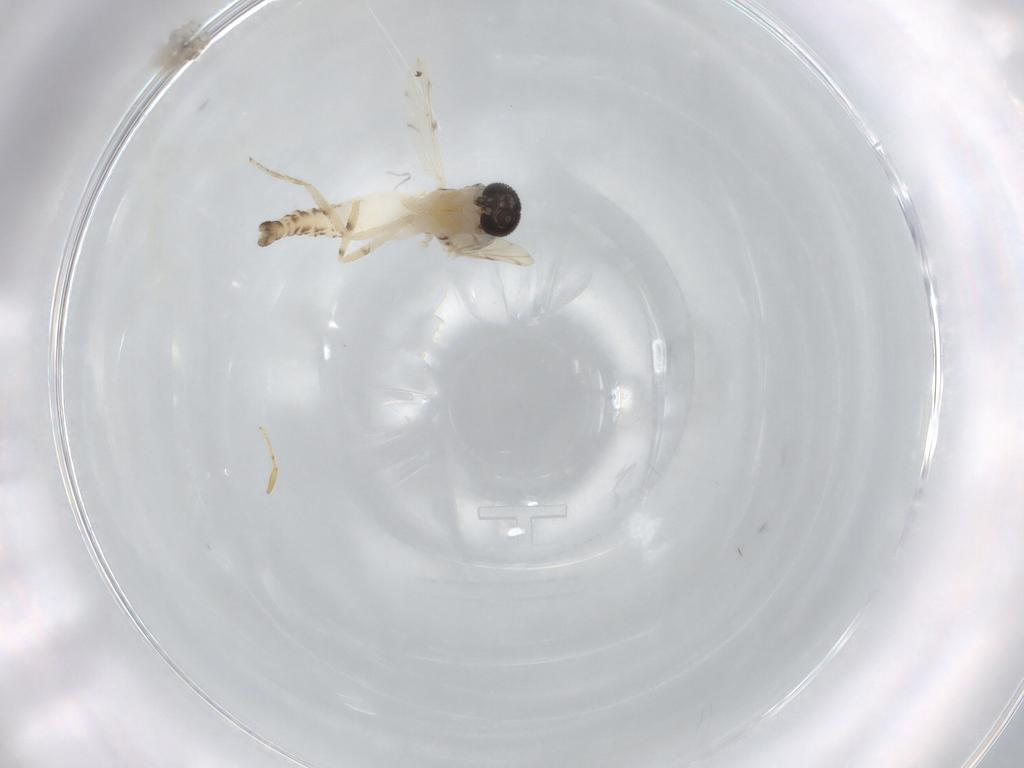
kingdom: Animalia
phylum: Arthropoda
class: Insecta
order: Diptera
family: Ceratopogonidae
